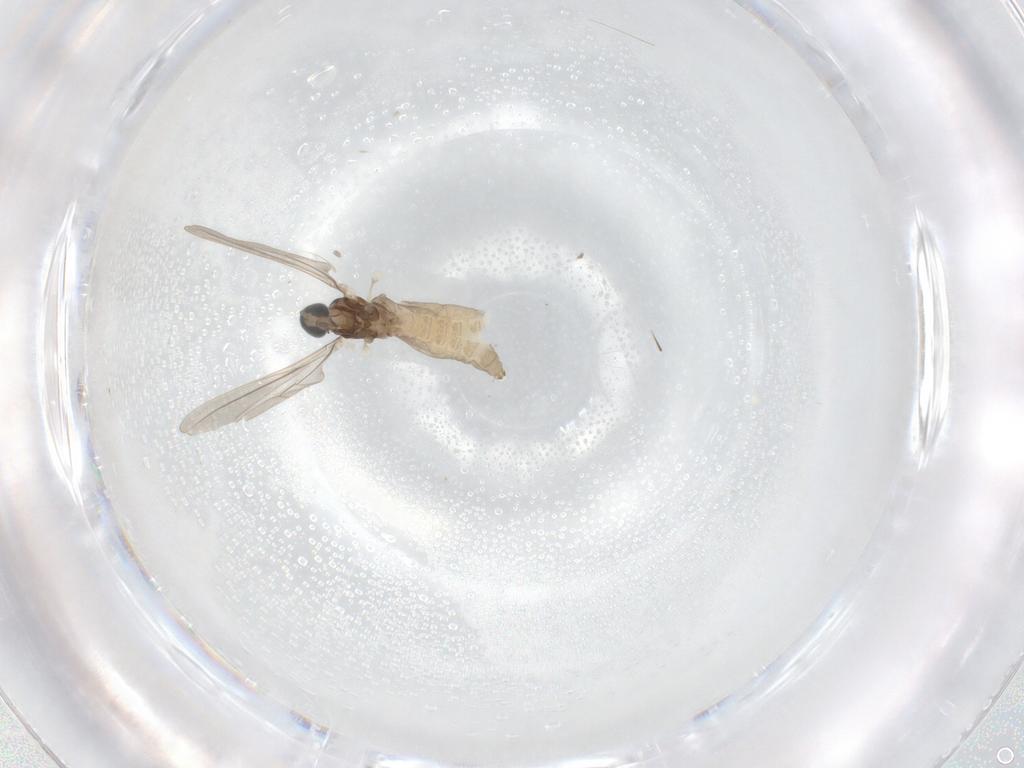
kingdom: Animalia
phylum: Arthropoda
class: Insecta
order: Diptera
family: Cecidomyiidae
